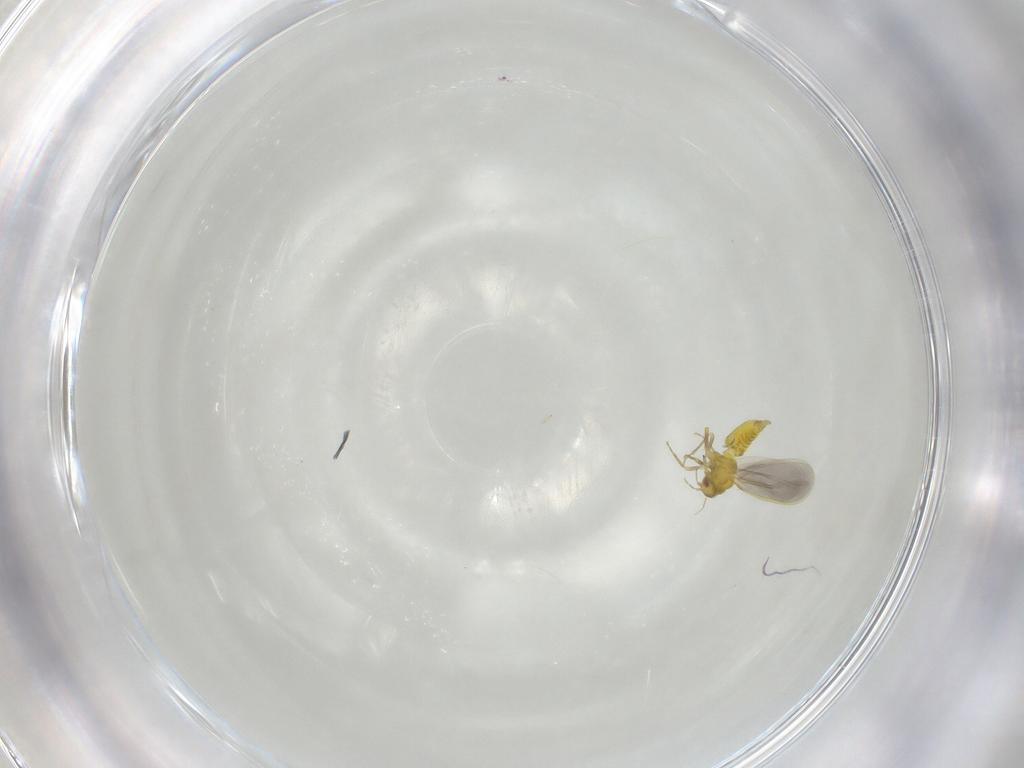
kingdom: Animalia
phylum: Arthropoda
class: Insecta
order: Hemiptera
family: Aleyrodidae
